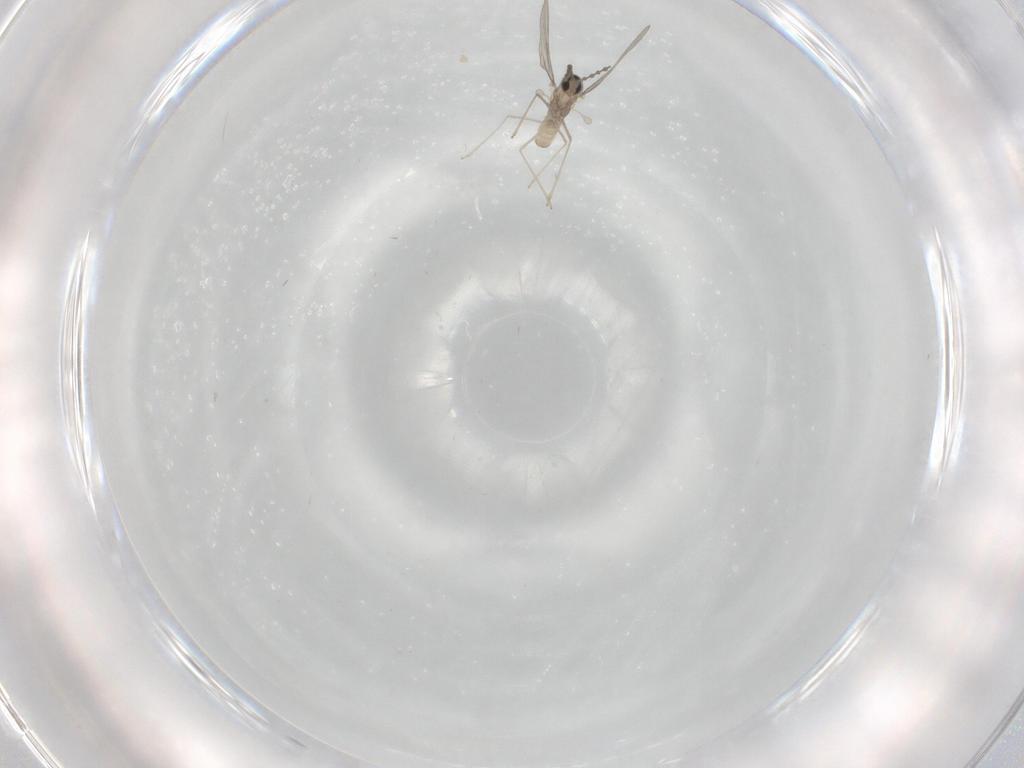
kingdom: Animalia
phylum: Arthropoda
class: Insecta
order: Diptera
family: Cecidomyiidae
